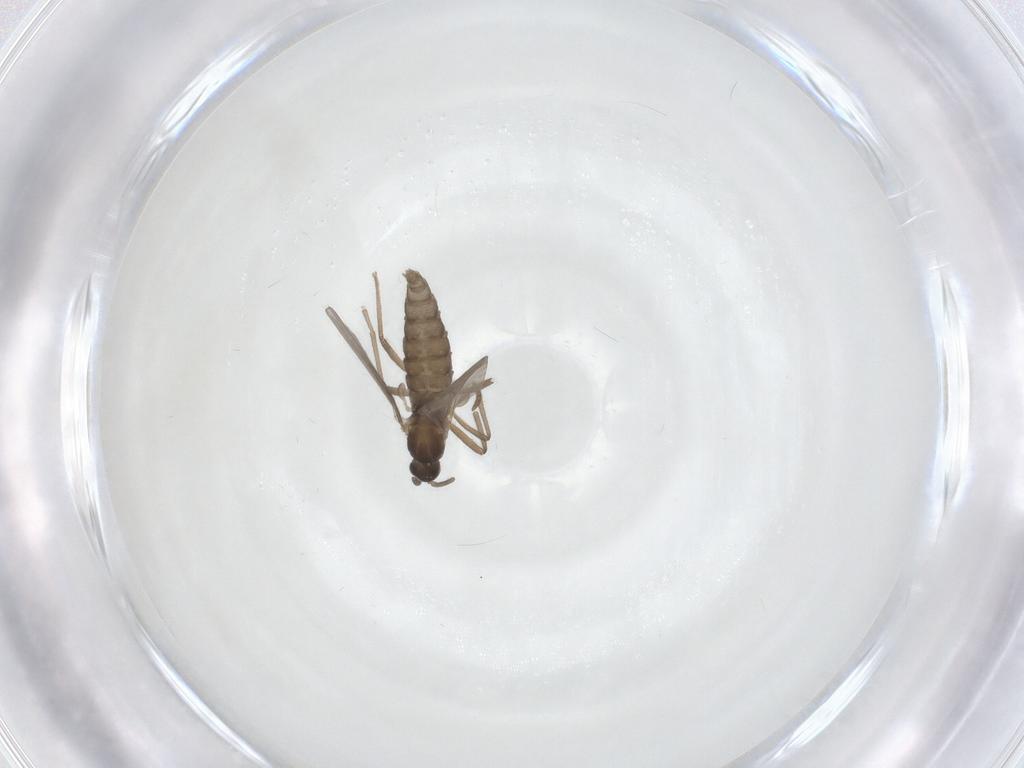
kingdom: Animalia
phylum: Arthropoda
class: Insecta
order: Diptera
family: Cecidomyiidae
